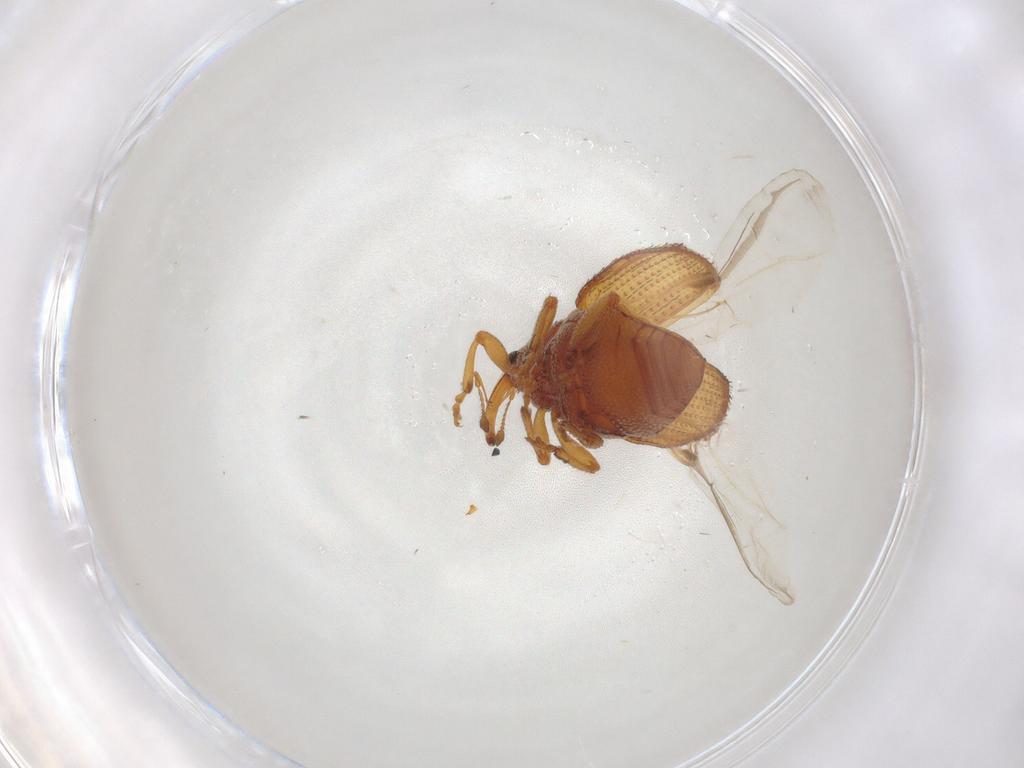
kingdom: Animalia
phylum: Arthropoda
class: Insecta
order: Coleoptera
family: Curculionidae
